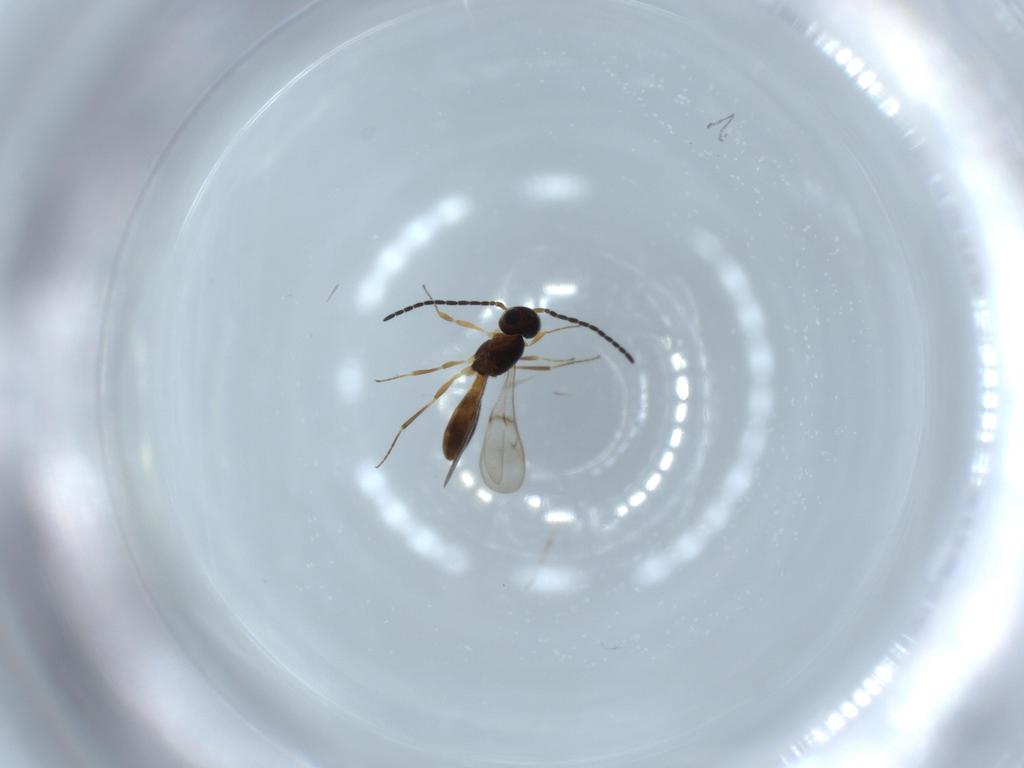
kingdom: Animalia
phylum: Arthropoda
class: Insecta
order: Hymenoptera
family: Scelionidae
